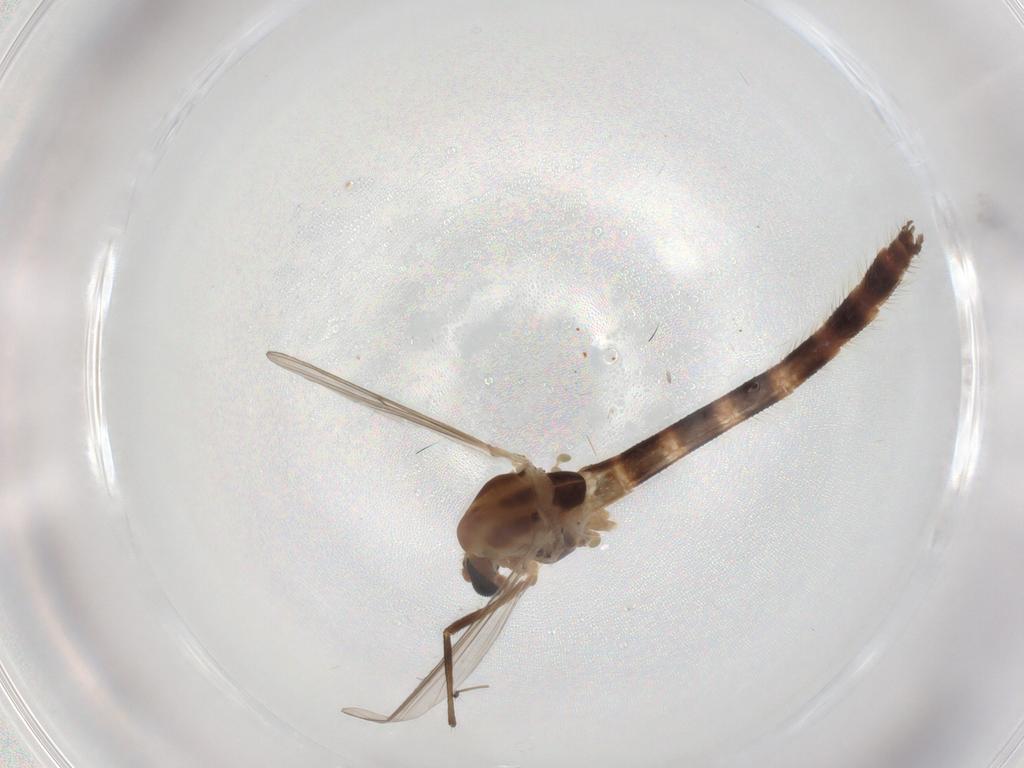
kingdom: Animalia
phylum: Arthropoda
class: Insecta
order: Diptera
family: Chironomidae
